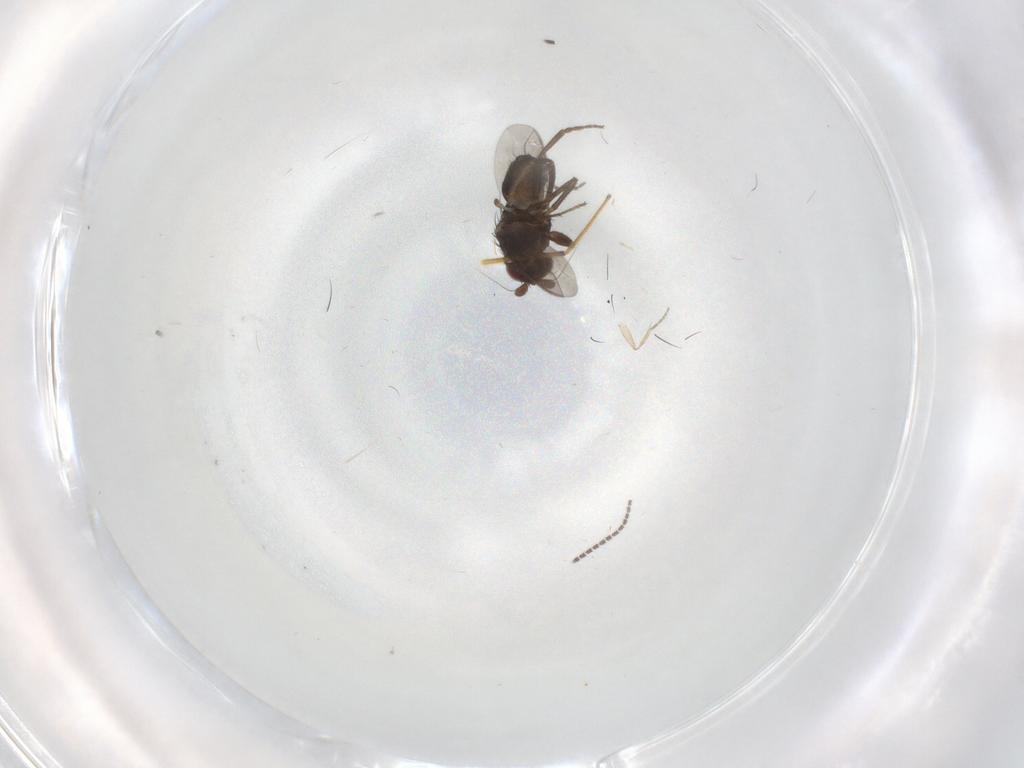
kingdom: Animalia
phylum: Arthropoda
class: Insecta
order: Diptera
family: Sciaridae
